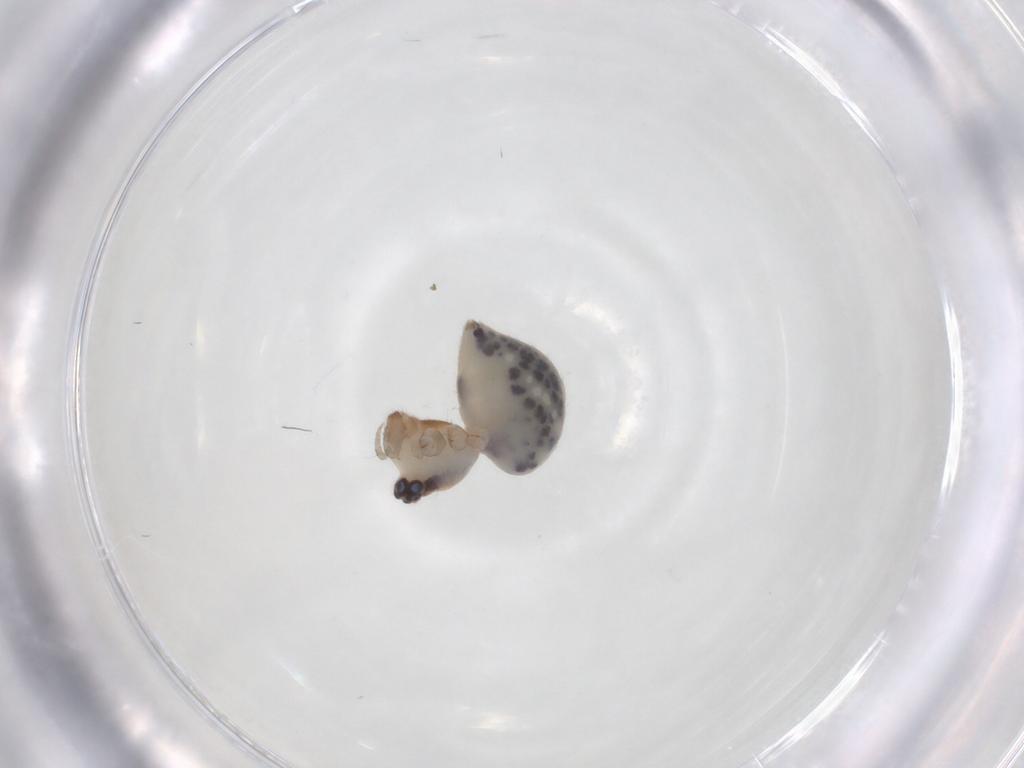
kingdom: Animalia
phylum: Arthropoda
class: Arachnida
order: Araneae
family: Pholcidae
